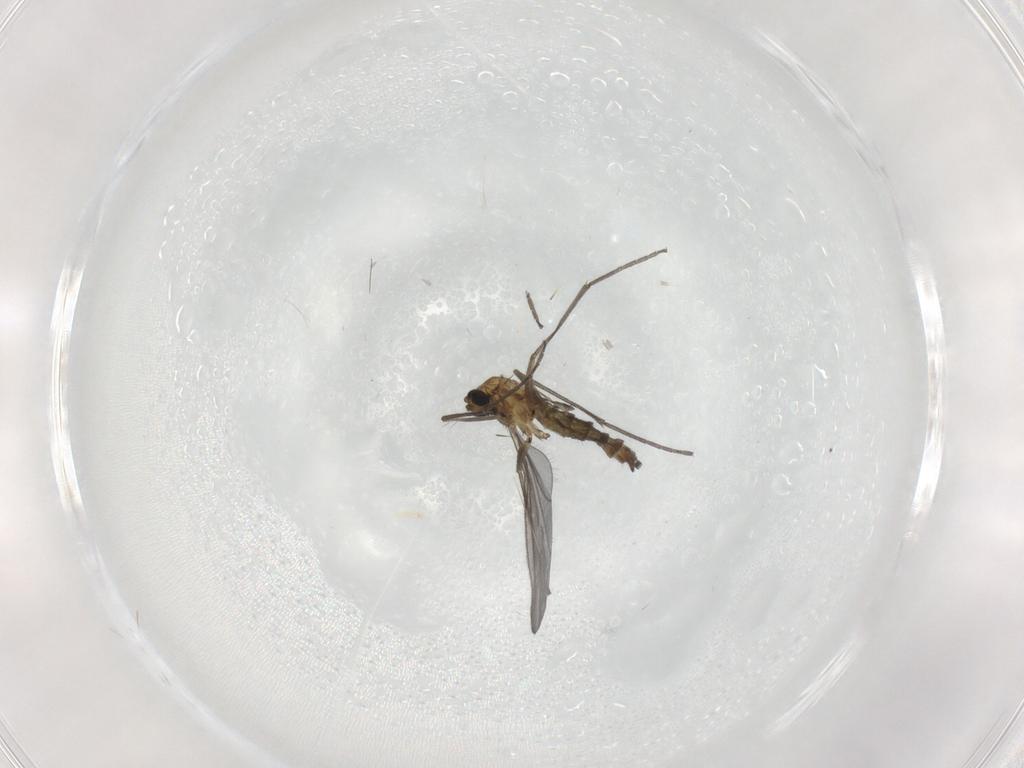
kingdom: Animalia
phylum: Arthropoda
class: Insecta
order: Diptera
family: Sciaridae
